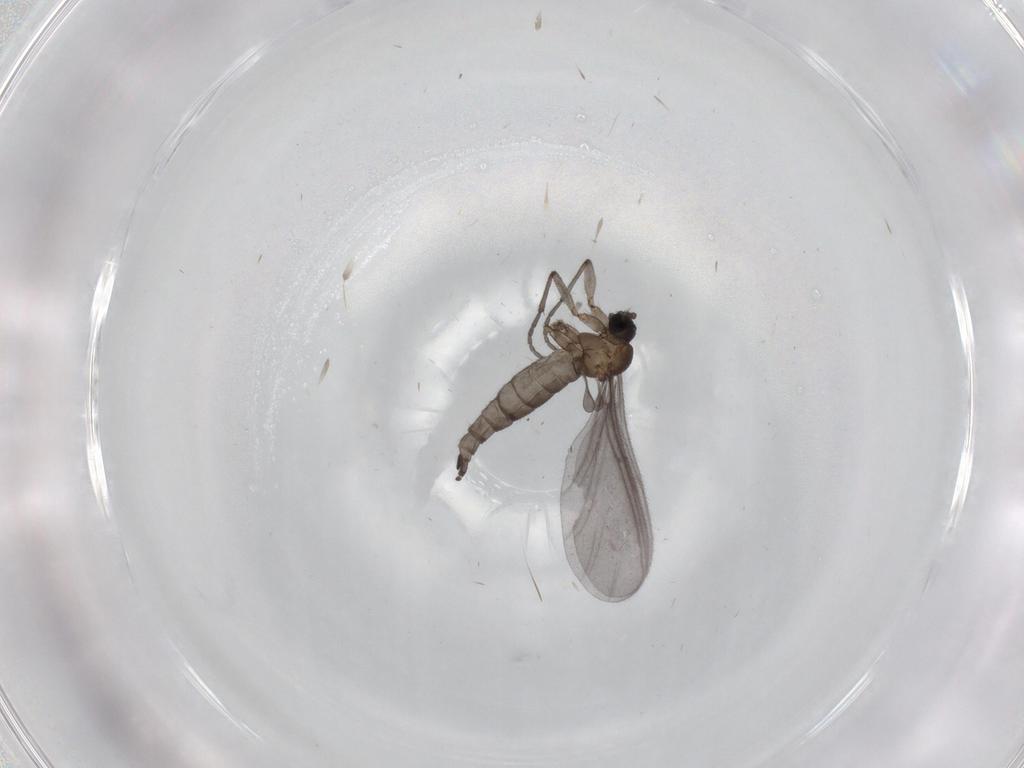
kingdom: Animalia
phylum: Arthropoda
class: Insecta
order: Diptera
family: Sciaridae
